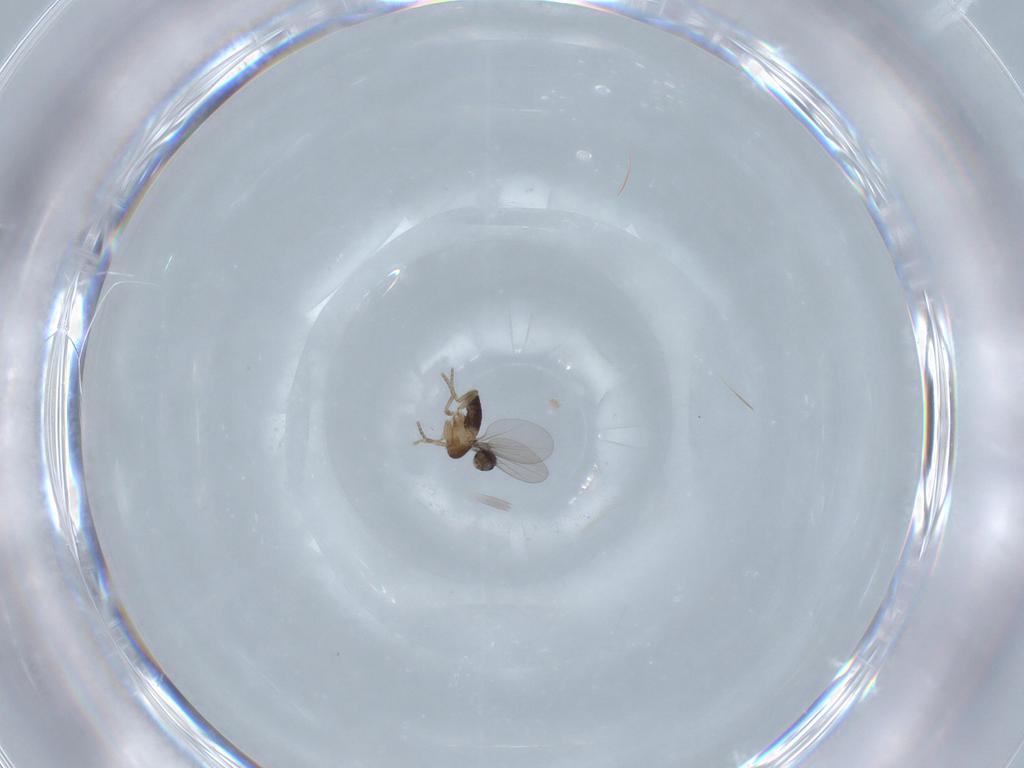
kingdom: Animalia
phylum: Arthropoda
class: Insecta
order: Diptera
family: Phoridae
